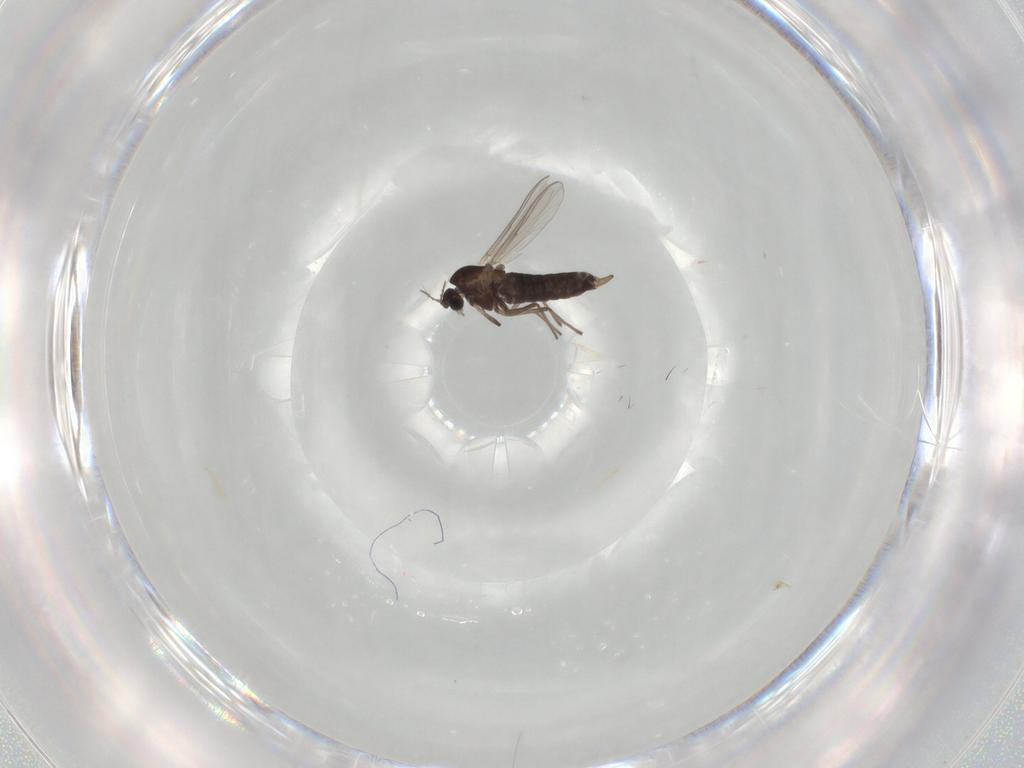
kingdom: Animalia
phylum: Arthropoda
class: Insecta
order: Diptera
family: Chironomidae
